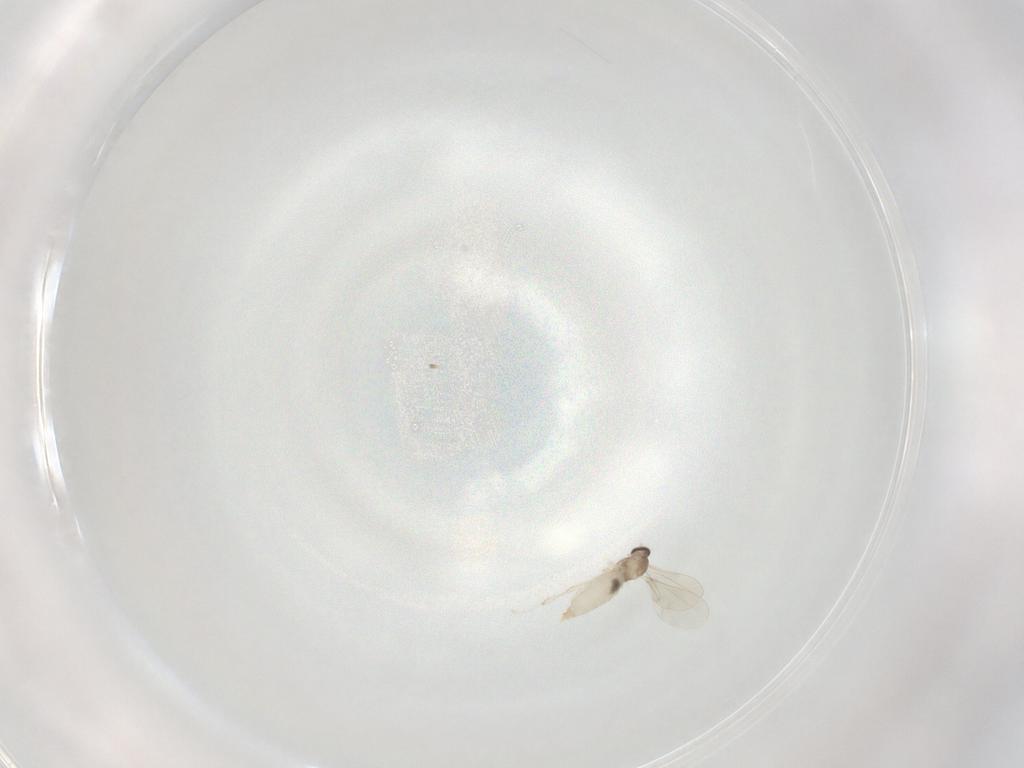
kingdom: Animalia
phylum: Arthropoda
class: Insecta
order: Diptera
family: Cecidomyiidae
